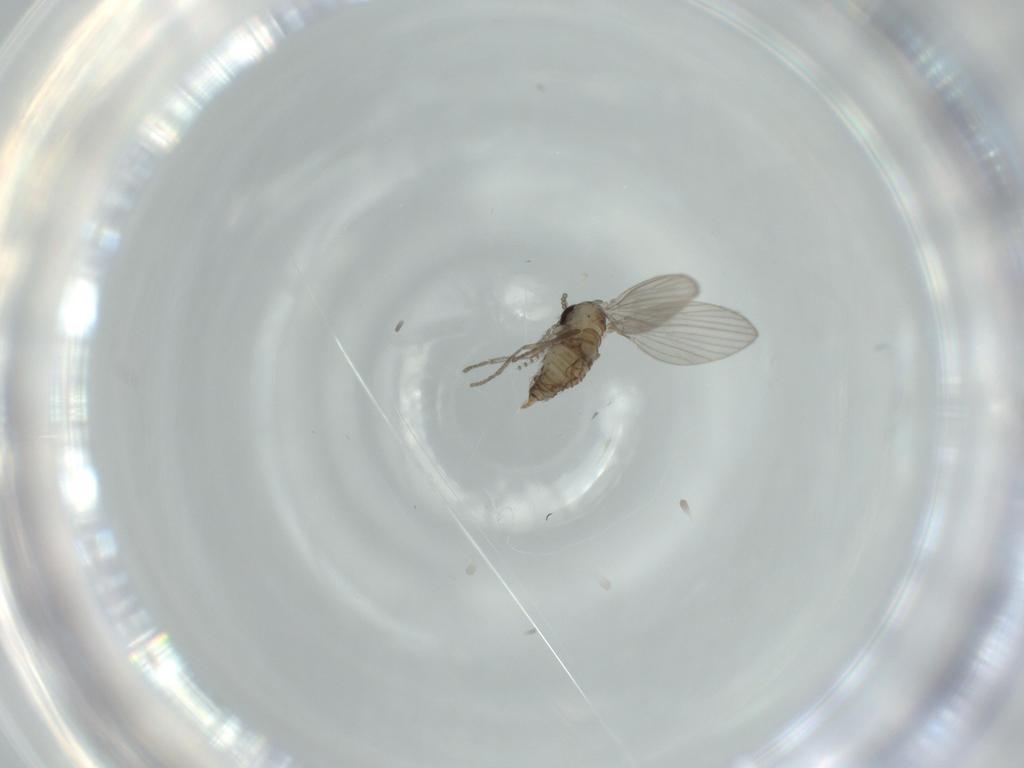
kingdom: Animalia
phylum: Arthropoda
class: Insecta
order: Diptera
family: Psychodidae
